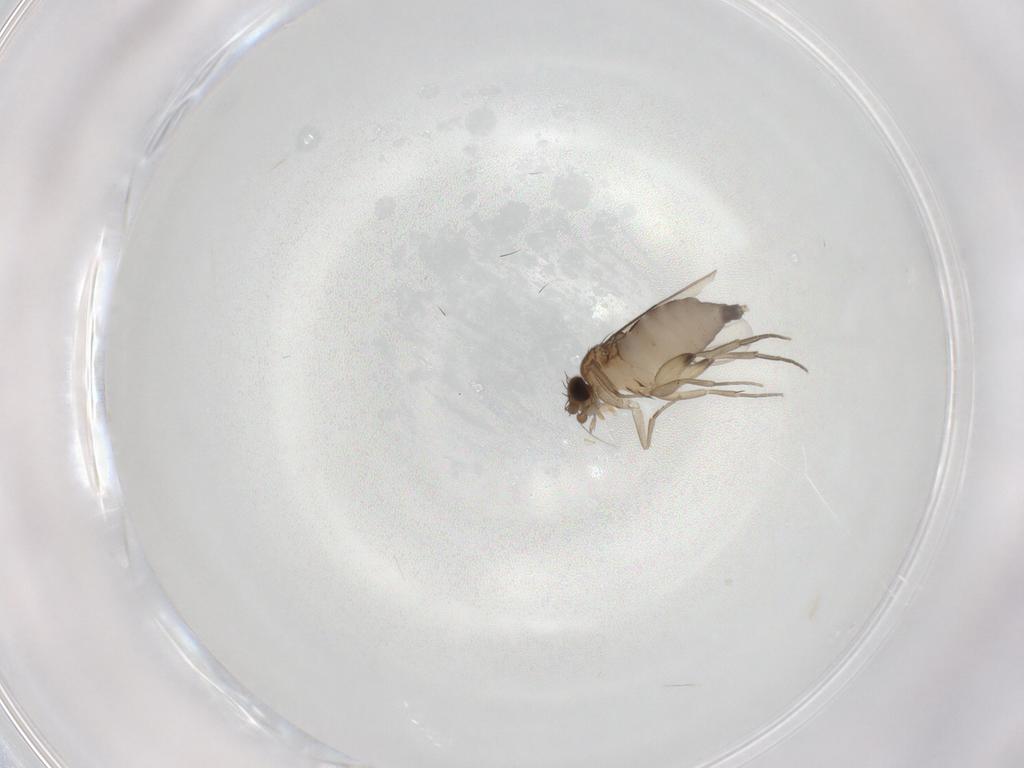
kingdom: Animalia
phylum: Arthropoda
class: Insecta
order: Diptera
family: Phoridae
